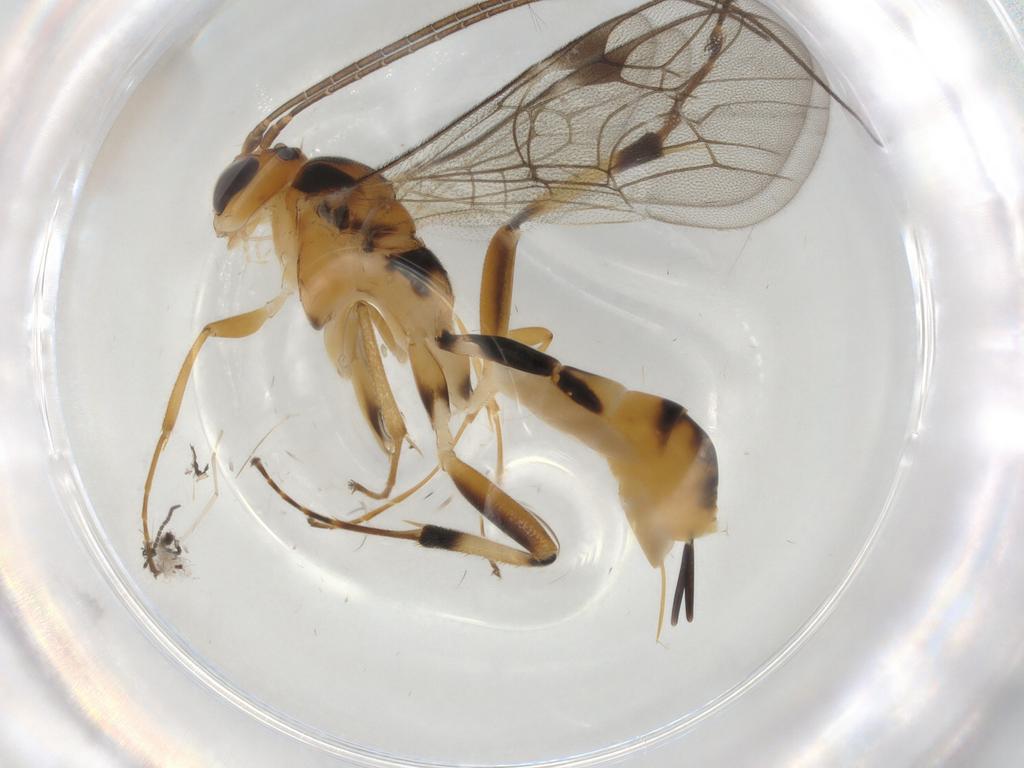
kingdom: Animalia
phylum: Arthropoda
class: Insecta
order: Hymenoptera
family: Ichneumonidae
